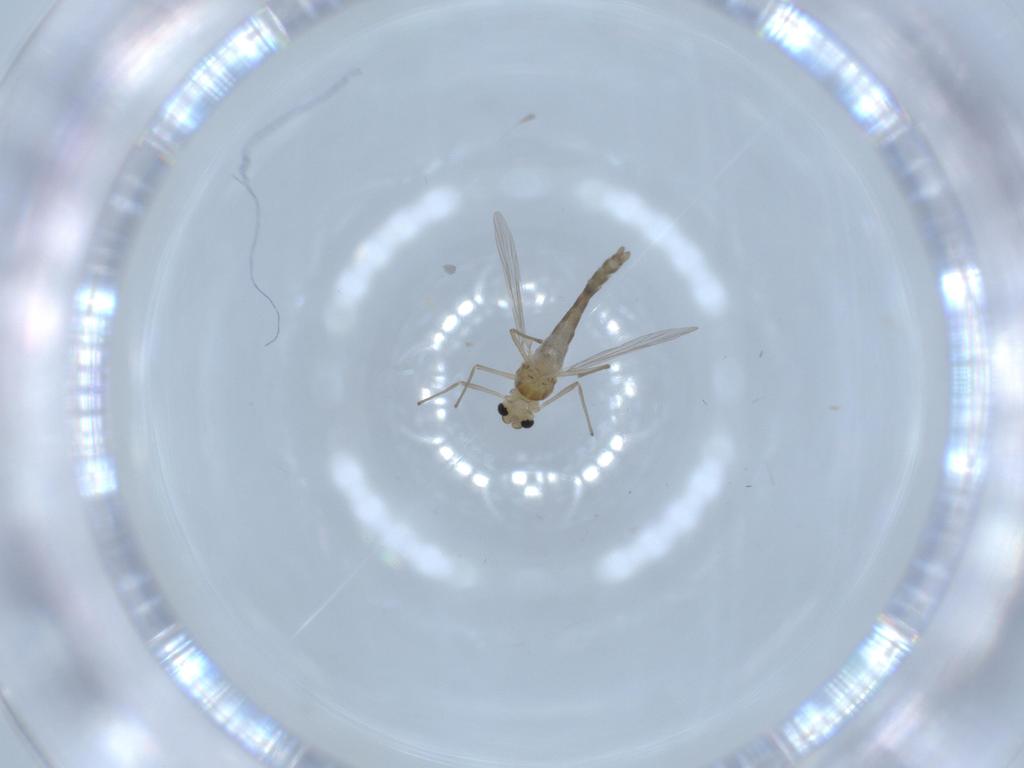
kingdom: Animalia
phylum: Arthropoda
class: Insecta
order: Diptera
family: Chironomidae
